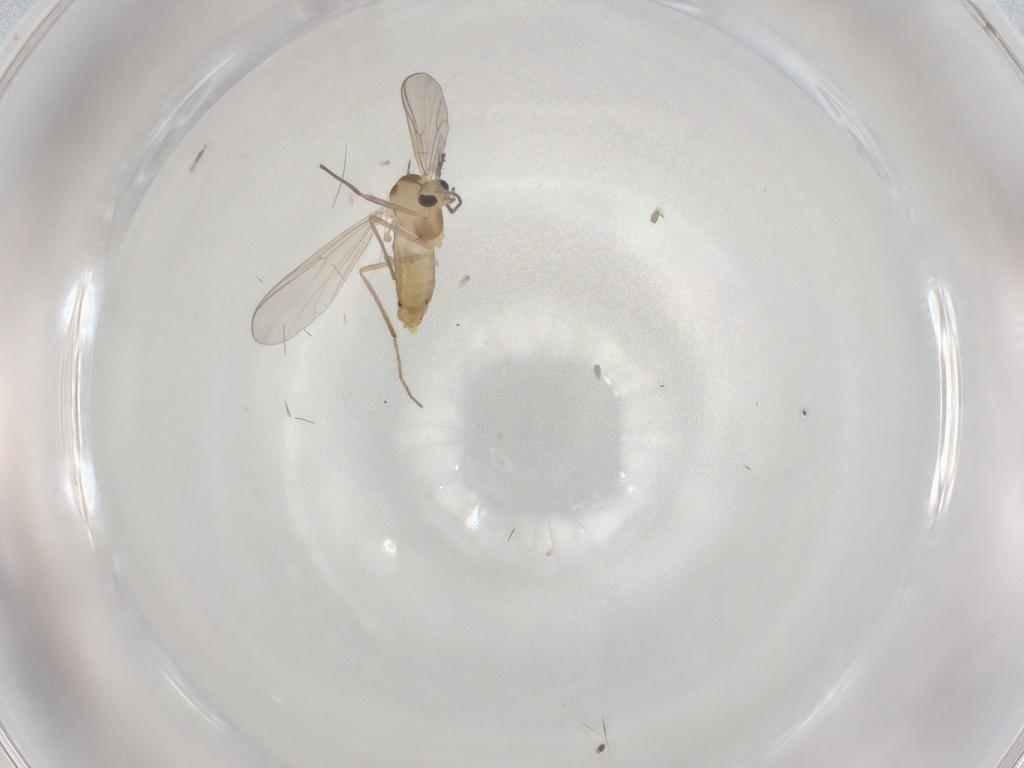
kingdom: Animalia
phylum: Arthropoda
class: Insecta
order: Diptera
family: Chironomidae
